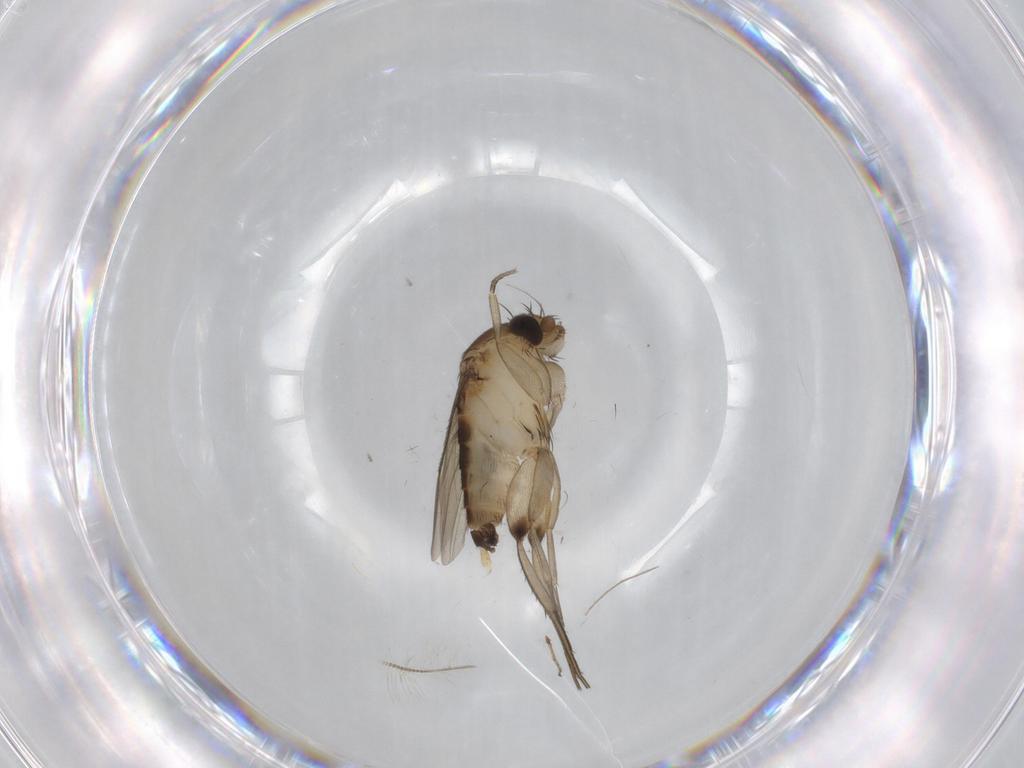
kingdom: Animalia
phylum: Arthropoda
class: Insecta
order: Diptera
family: Chironomidae
